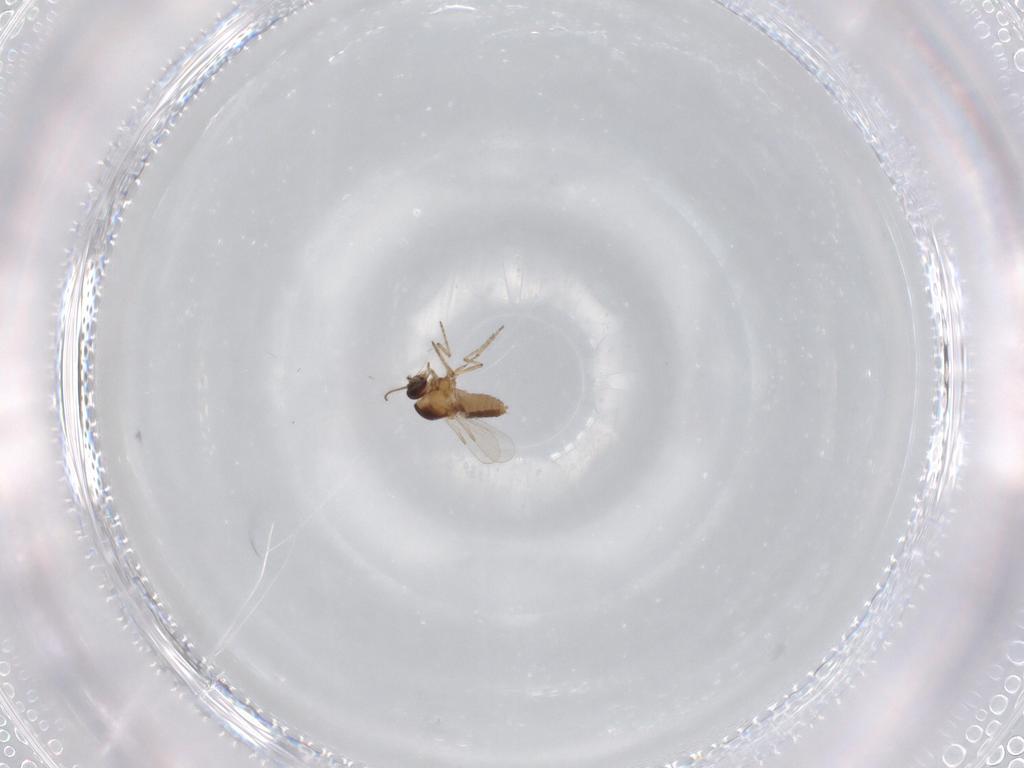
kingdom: Animalia
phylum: Arthropoda
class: Insecta
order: Diptera
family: Ceratopogonidae
